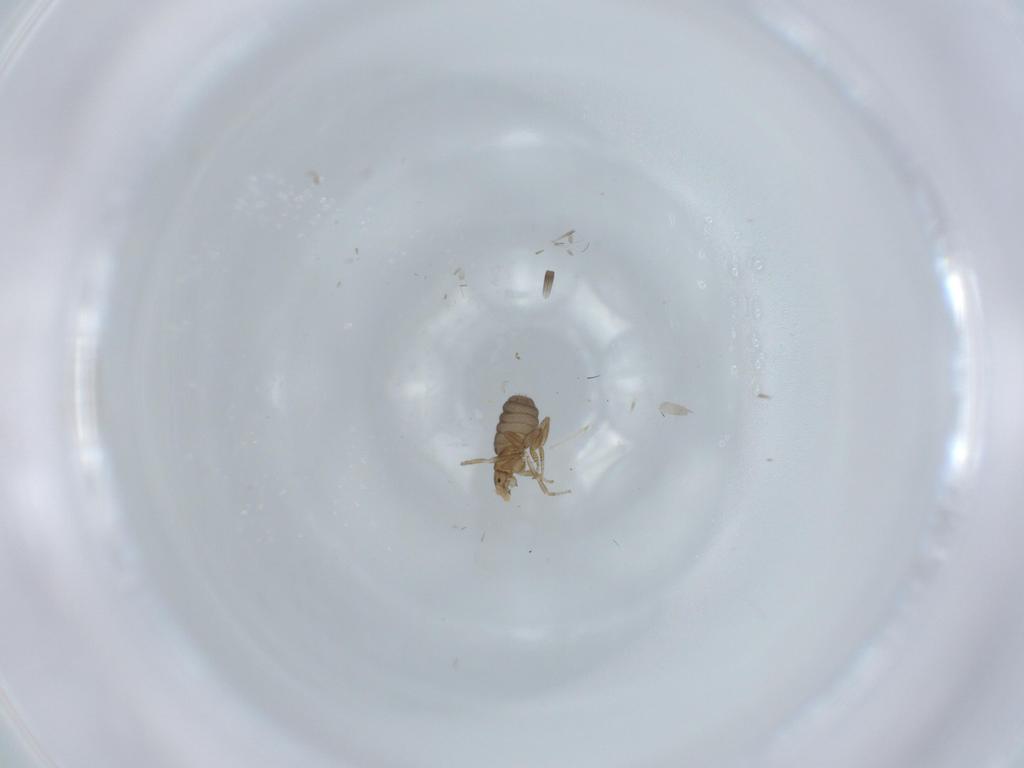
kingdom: Animalia
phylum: Arthropoda
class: Insecta
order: Diptera
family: Phoridae
